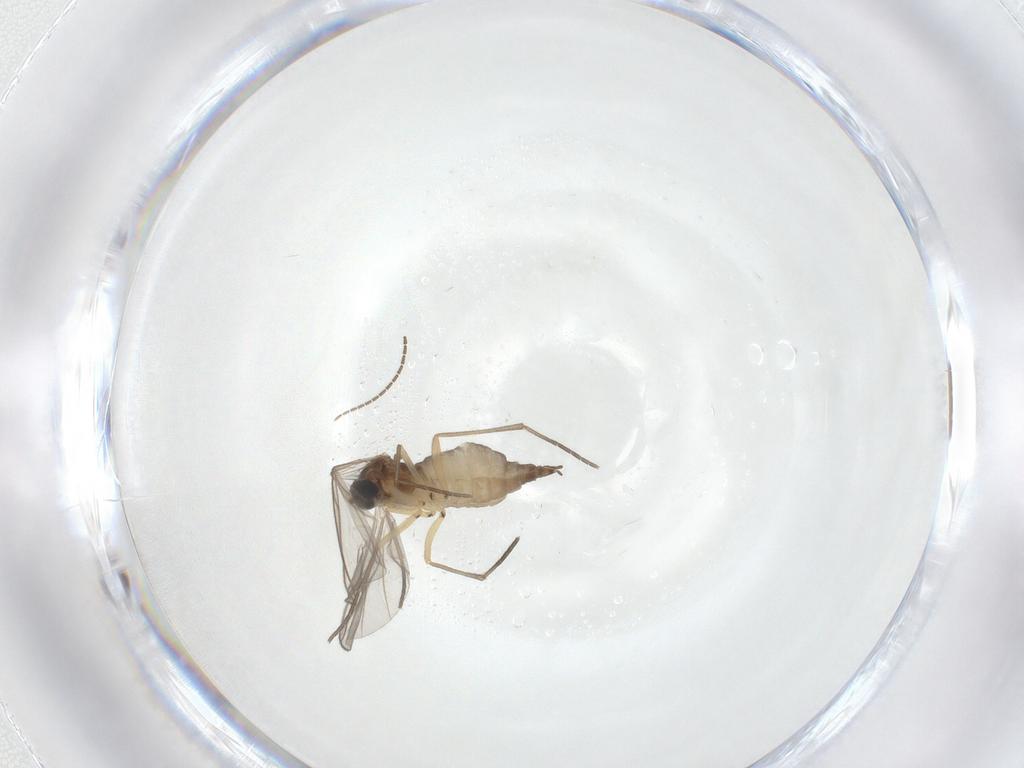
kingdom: Animalia
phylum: Arthropoda
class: Insecta
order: Diptera
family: Sciaridae
